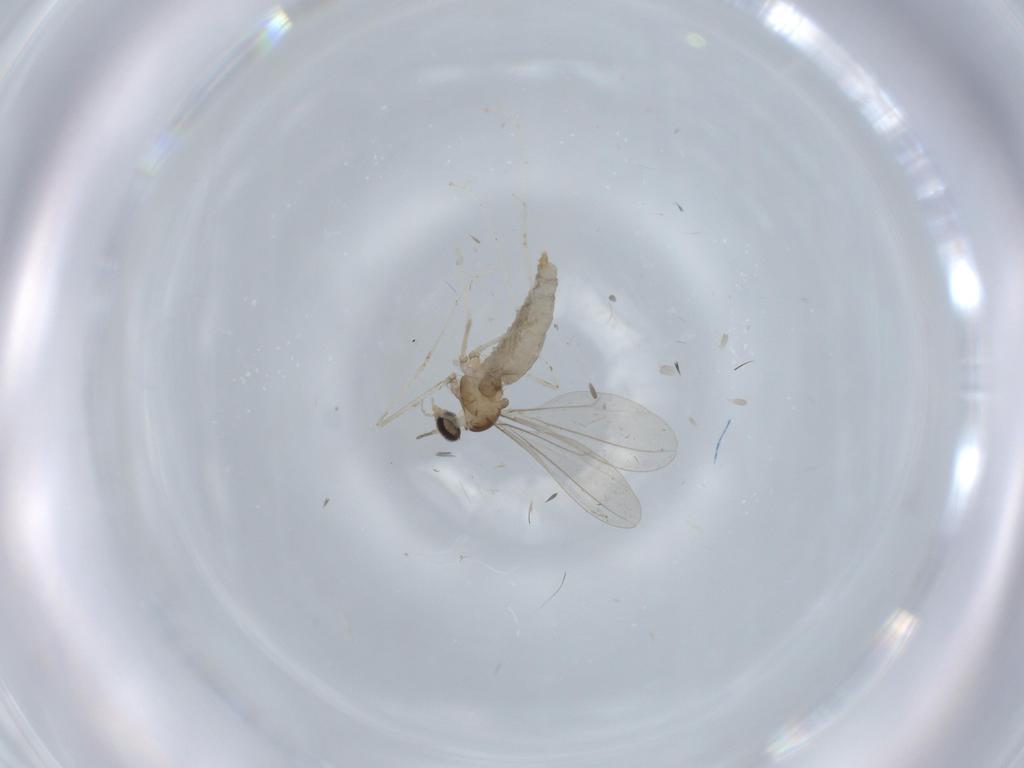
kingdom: Animalia
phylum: Arthropoda
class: Insecta
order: Diptera
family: Cecidomyiidae
